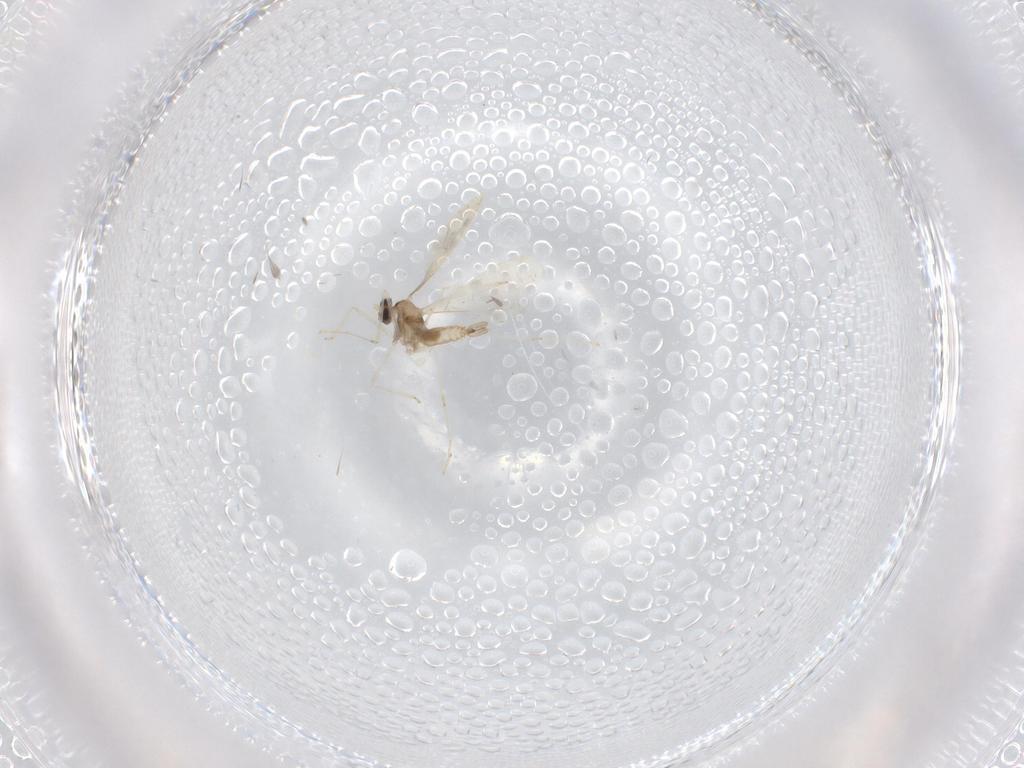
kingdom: Animalia
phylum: Arthropoda
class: Insecta
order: Diptera
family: Cecidomyiidae
